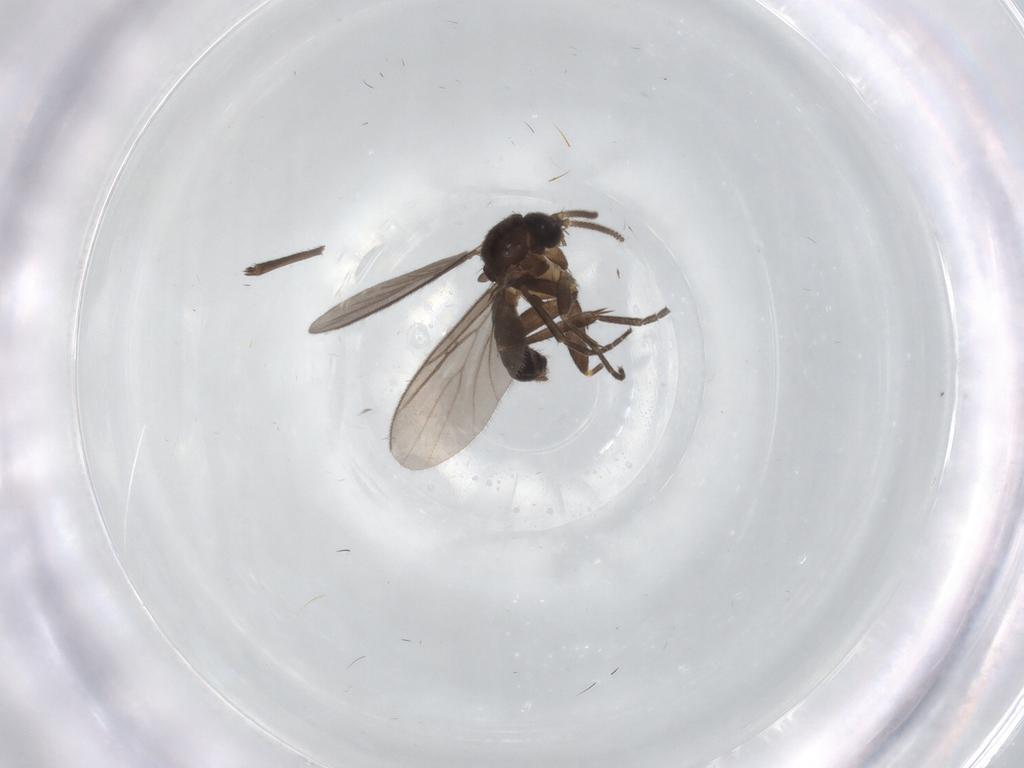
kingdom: Animalia
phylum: Arthropoda
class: Insecta
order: Diptera
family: Mycetophilidae
